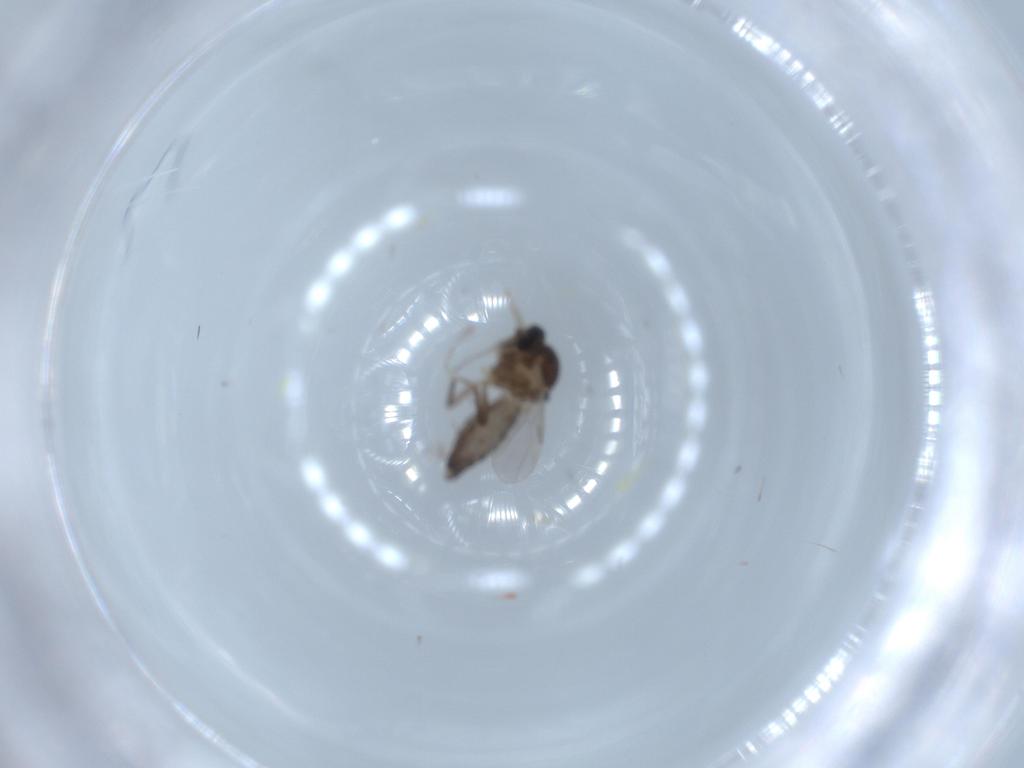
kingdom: Animalia
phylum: Arthropoda
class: Insecta
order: Diptera
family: Ceratopogonidae
